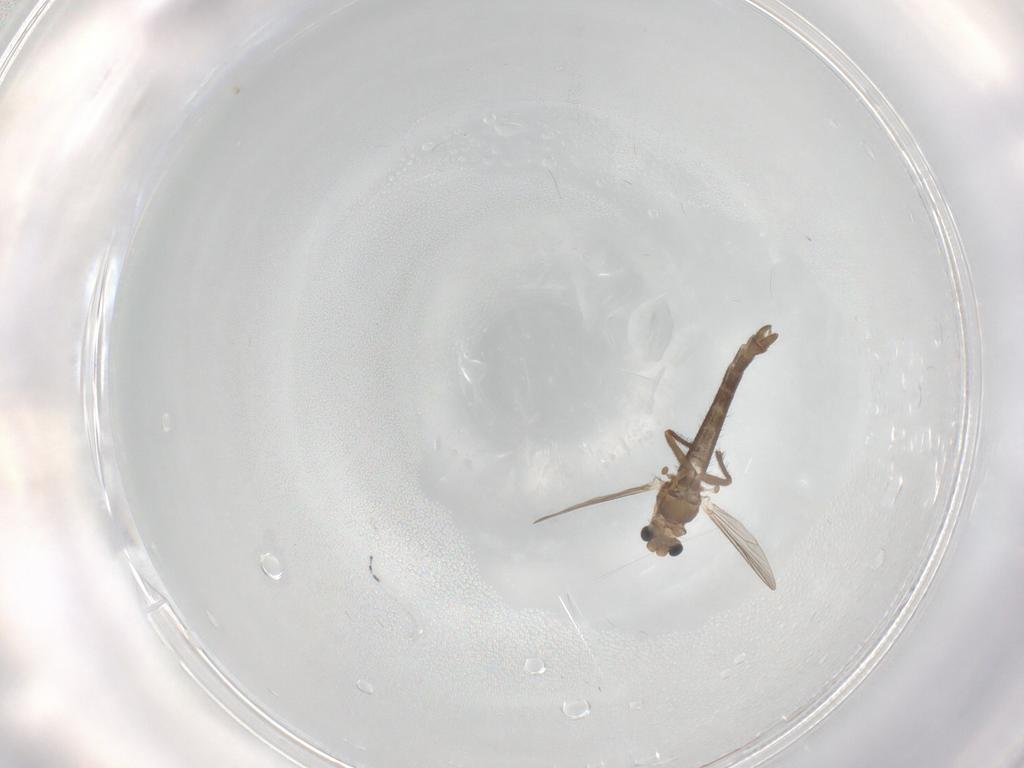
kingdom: Animalia
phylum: Arthropoda
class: Insecta
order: Diptera
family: Chironomidae
